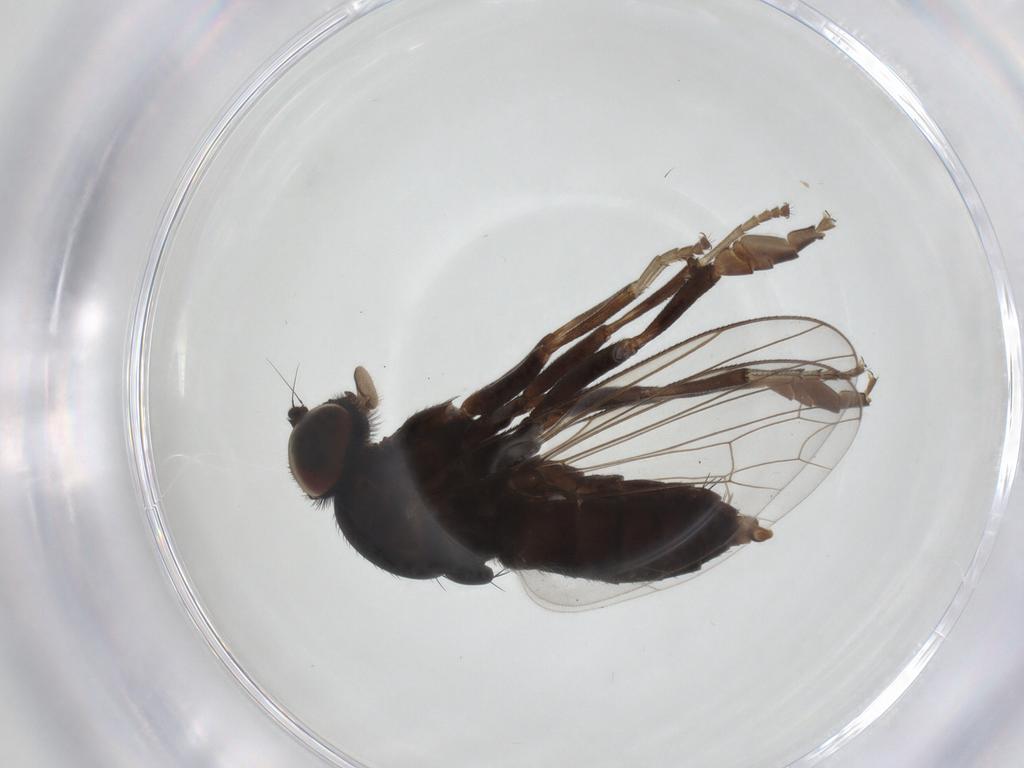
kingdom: Animalia
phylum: Arthropoda
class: Insecta
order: Diptera
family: Platypezidae
